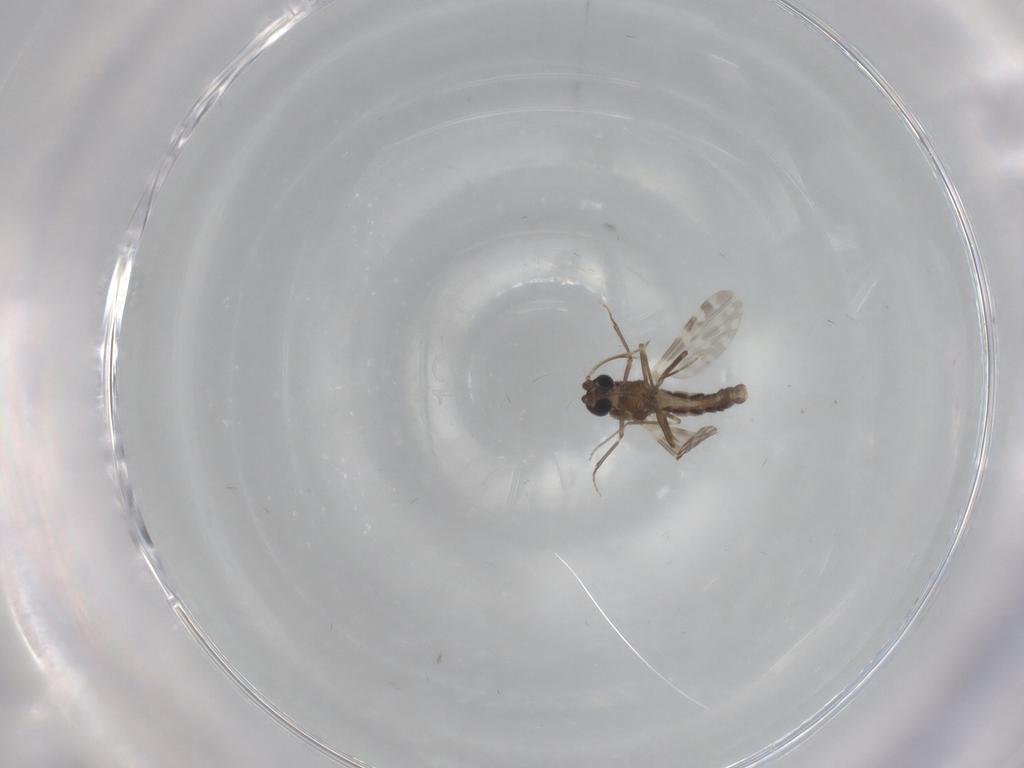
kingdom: Animalia
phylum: Arthropoda
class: Insecta
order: Diptera
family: Ceratopogonidae
